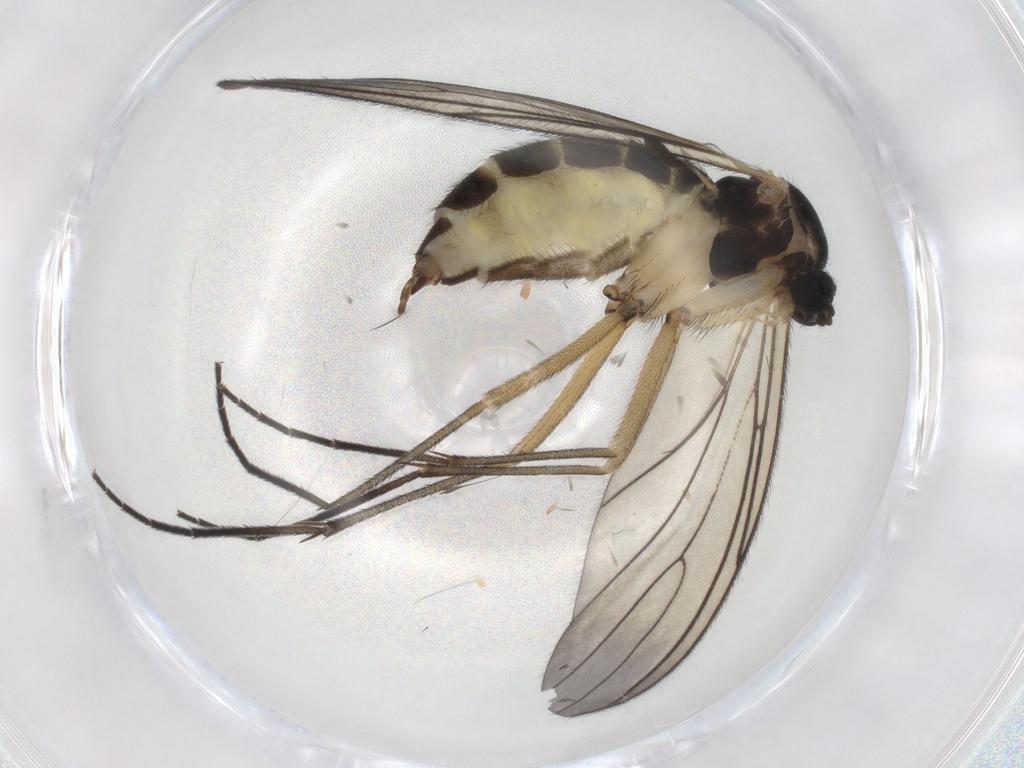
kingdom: Animalia
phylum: Arthropoda
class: Insecta
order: Diptera
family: Sciaridae
